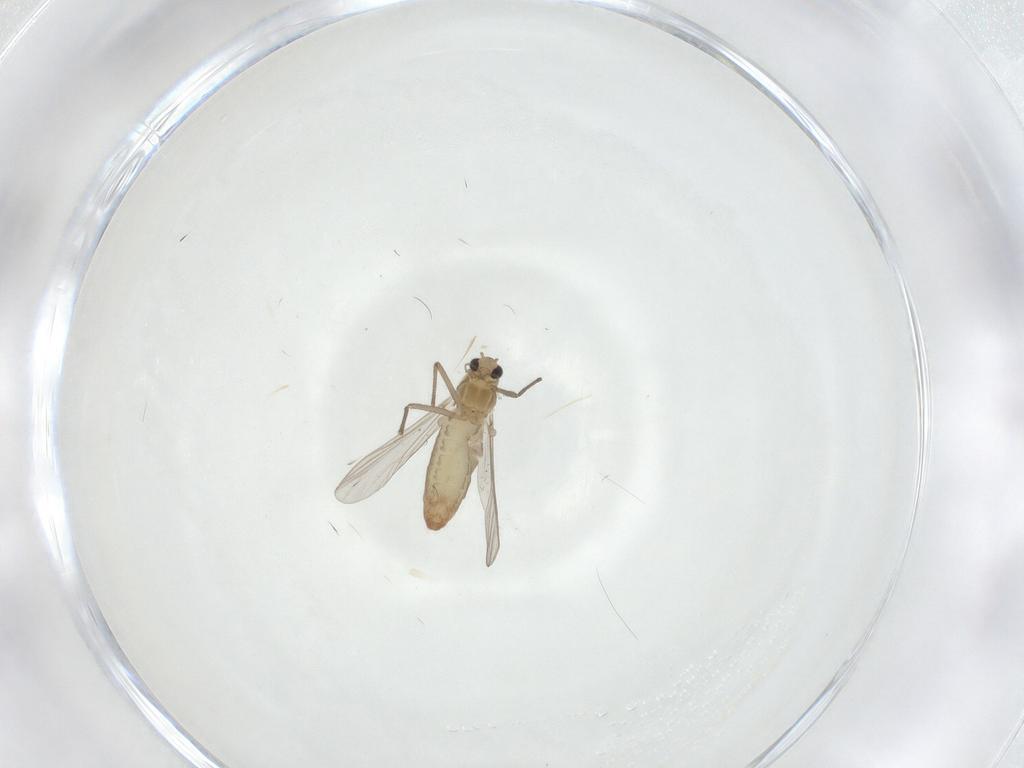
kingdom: Animalia
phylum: Arthropoda
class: Insecta
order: Diptera
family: Chironomidae
